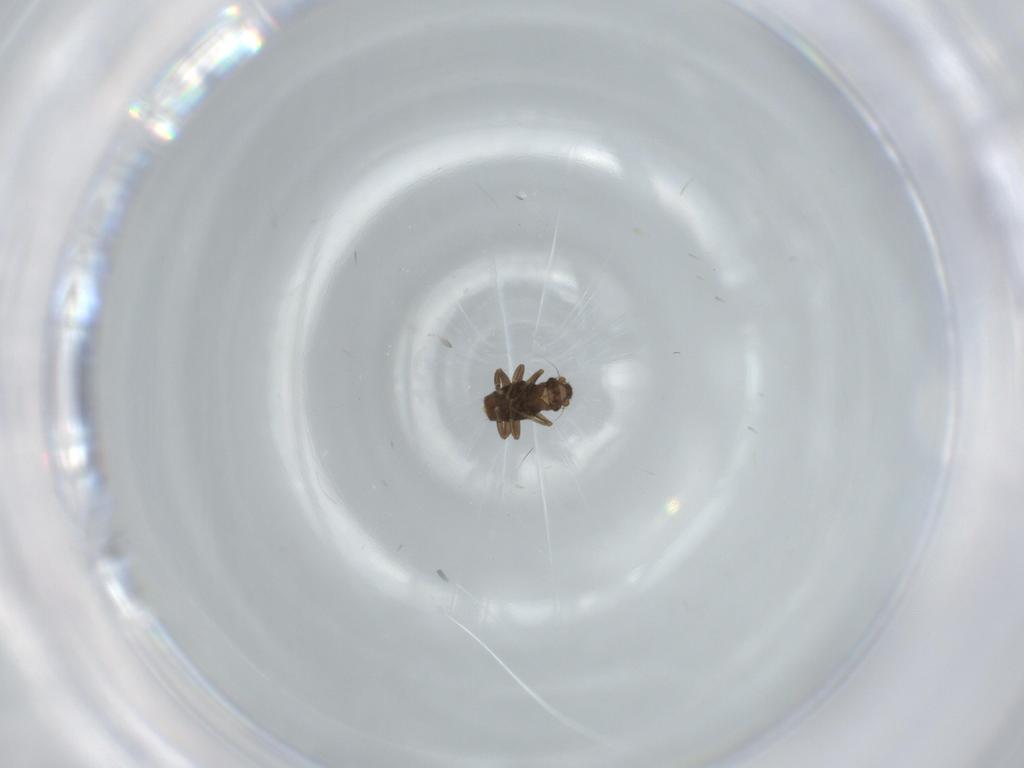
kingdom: Animalia
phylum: Arthropoda
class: Insecta
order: Diptera
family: Phoridae
